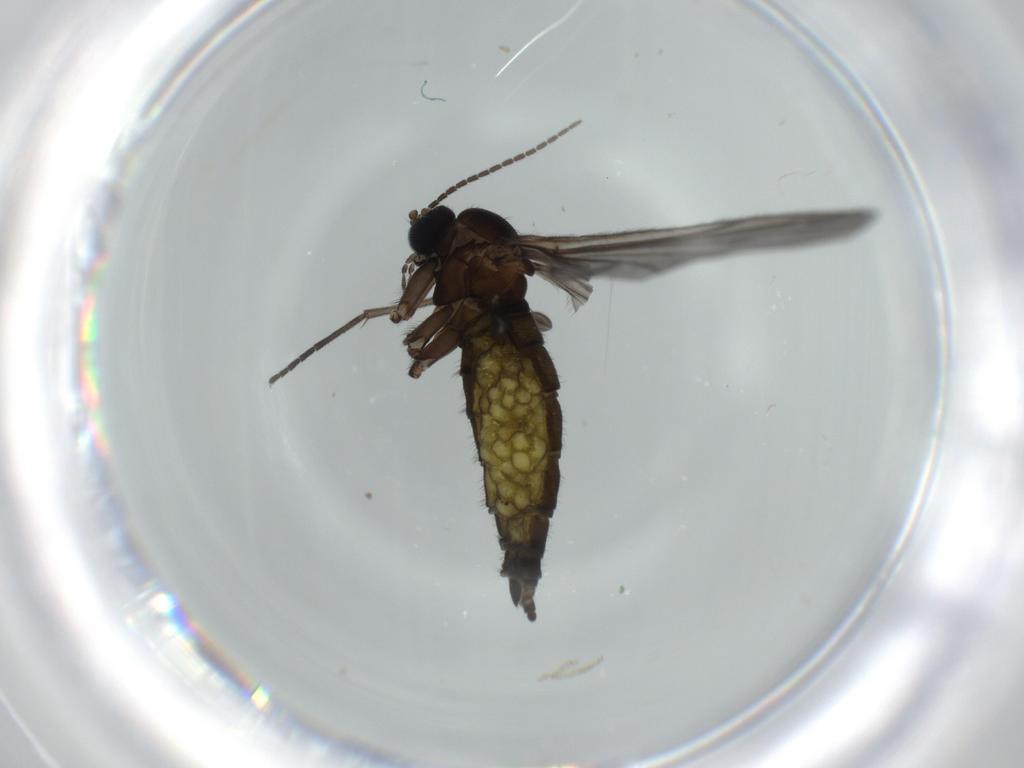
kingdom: Animalia
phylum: Arthropoda
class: Insecta
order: Diptera
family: Sciaridae
